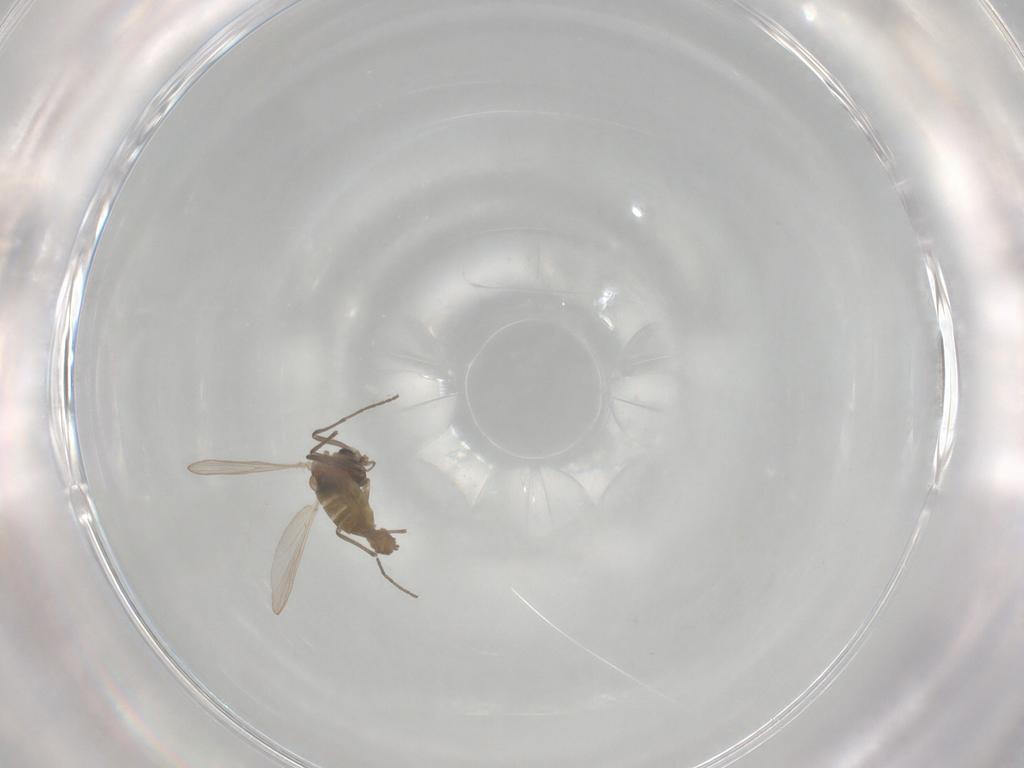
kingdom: Animalia
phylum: Arthropoda
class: Insecta
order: Diptera
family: Chironomidae
